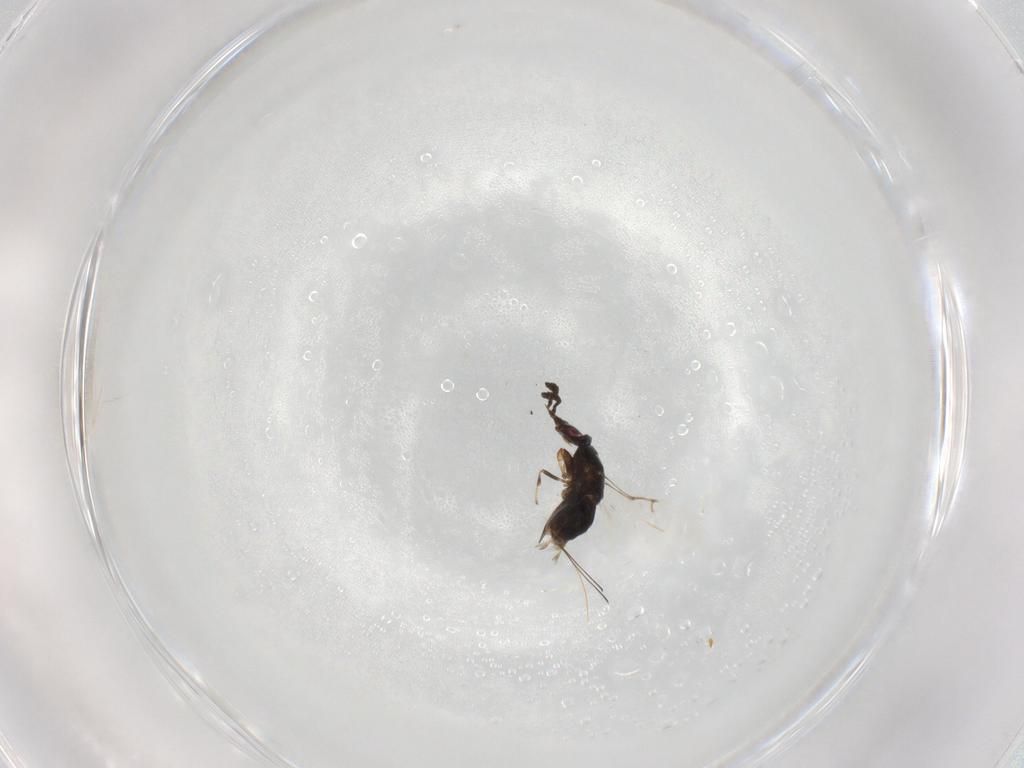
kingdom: Animalia
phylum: Arthropoda
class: Insecta
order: Hymenoptera
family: Agaonidae
